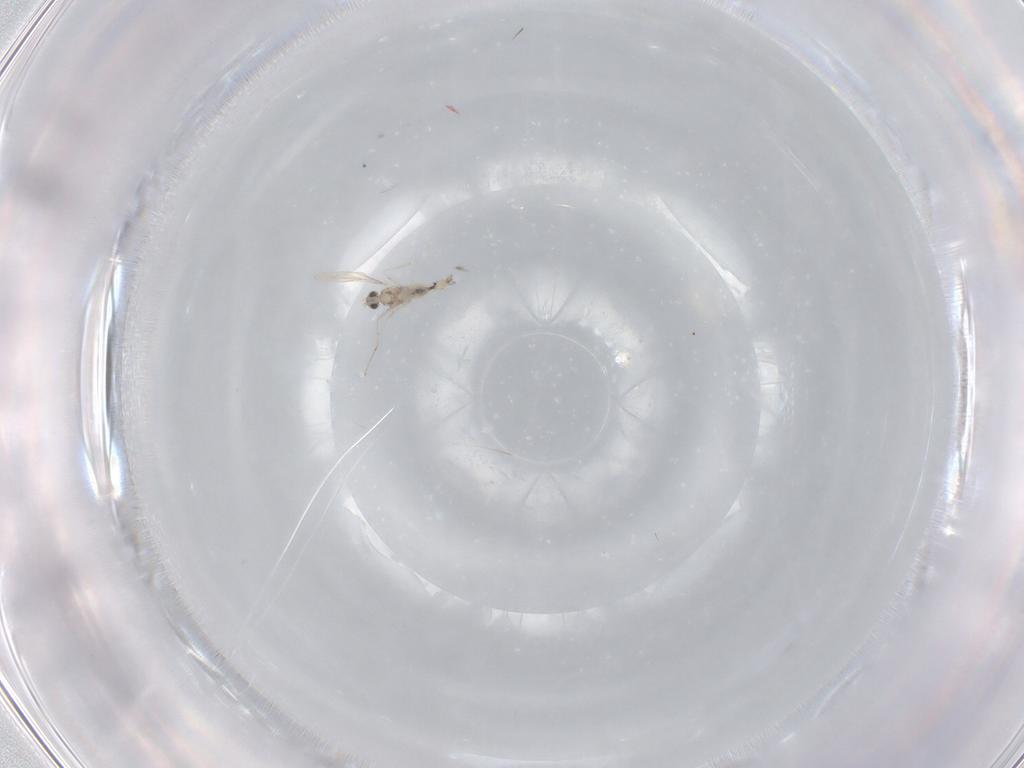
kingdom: Animalia
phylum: Arthropoda
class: Insecta
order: Diptera
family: Cecidomyiidae
